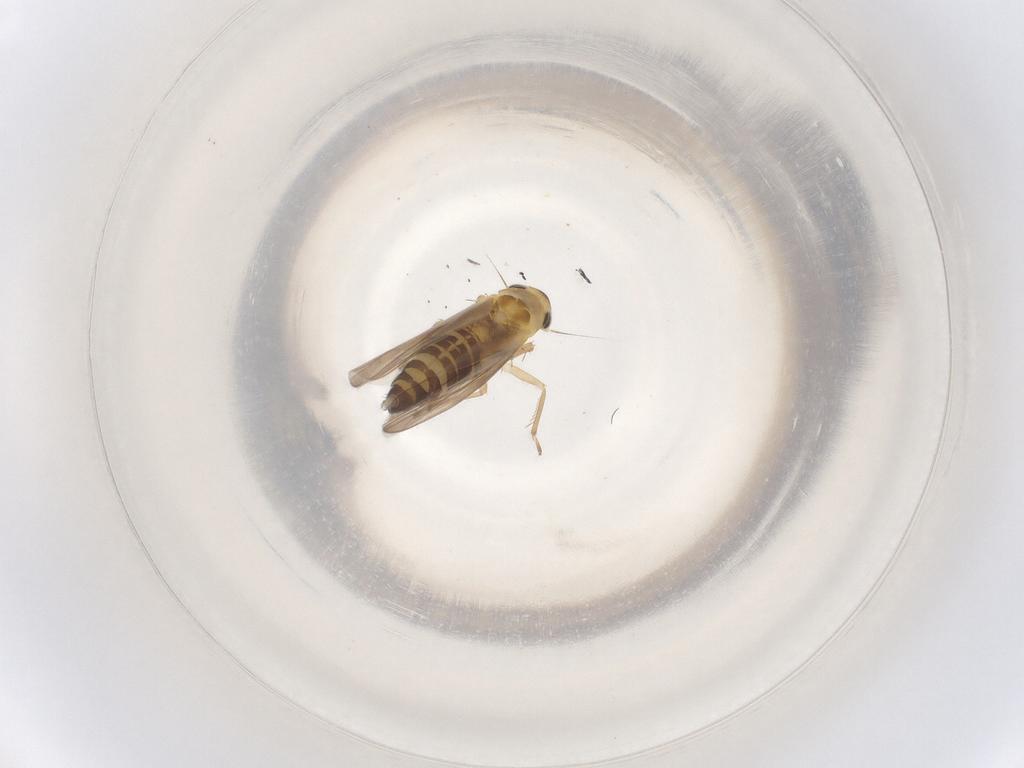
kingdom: Animalia
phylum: Arthropoda
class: Insecta
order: Hemiptera
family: Cicadellidae
